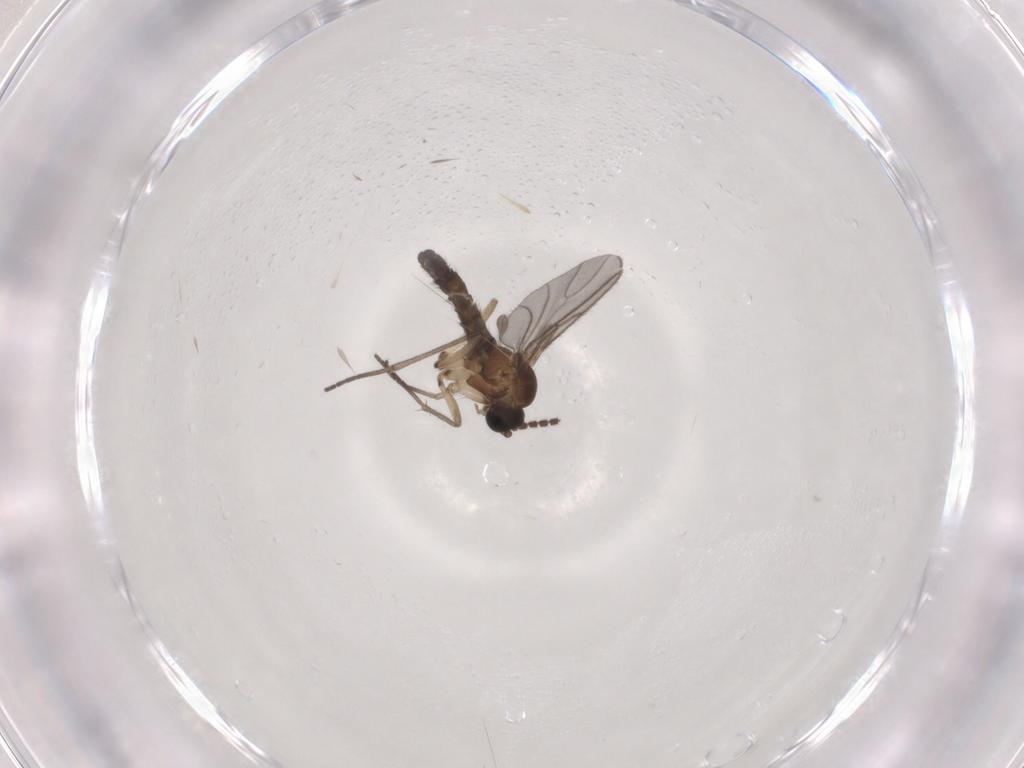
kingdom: Animalia
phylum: Arthropoda
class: Insecta
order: Diptera
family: Sciaridae
